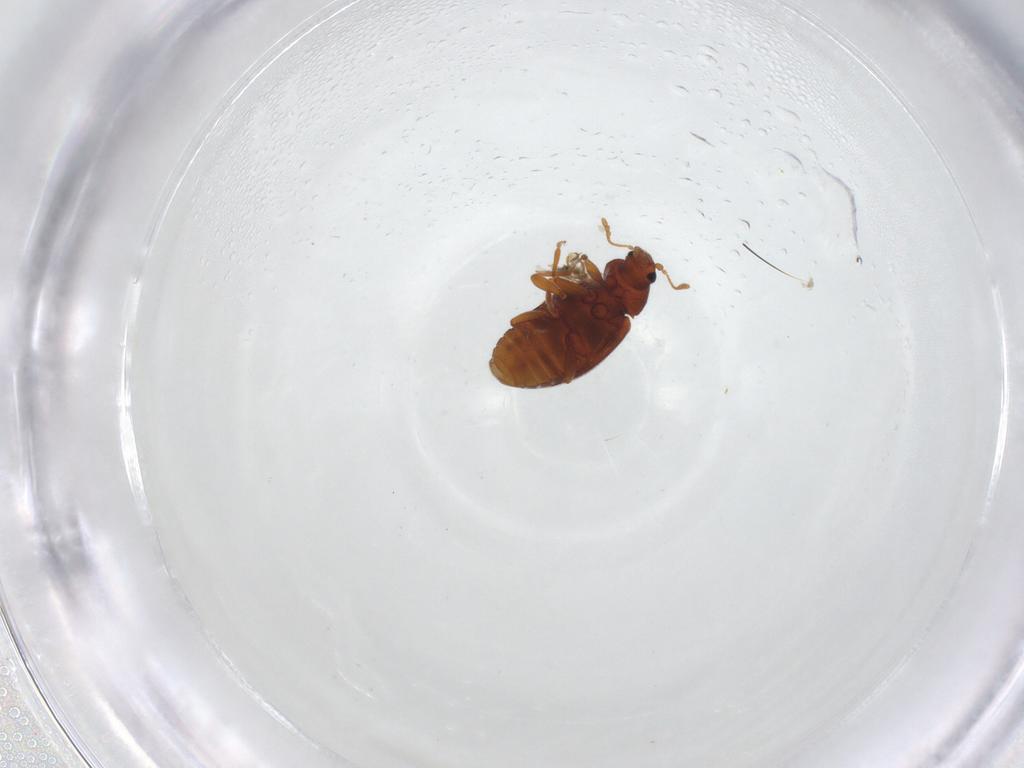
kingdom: Animalia
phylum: Arthropoda
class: Insecta
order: Coleoptera
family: Latridiidae
